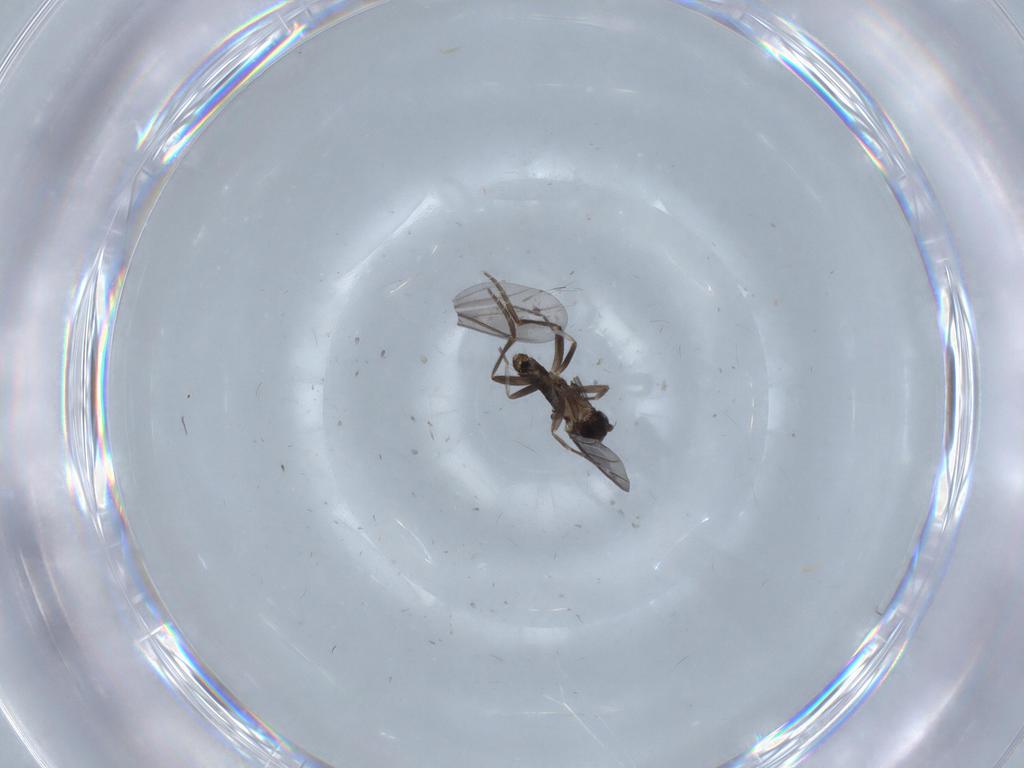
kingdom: Animalia
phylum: Arthropoda
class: Insecta
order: Diptera
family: Phoridae
